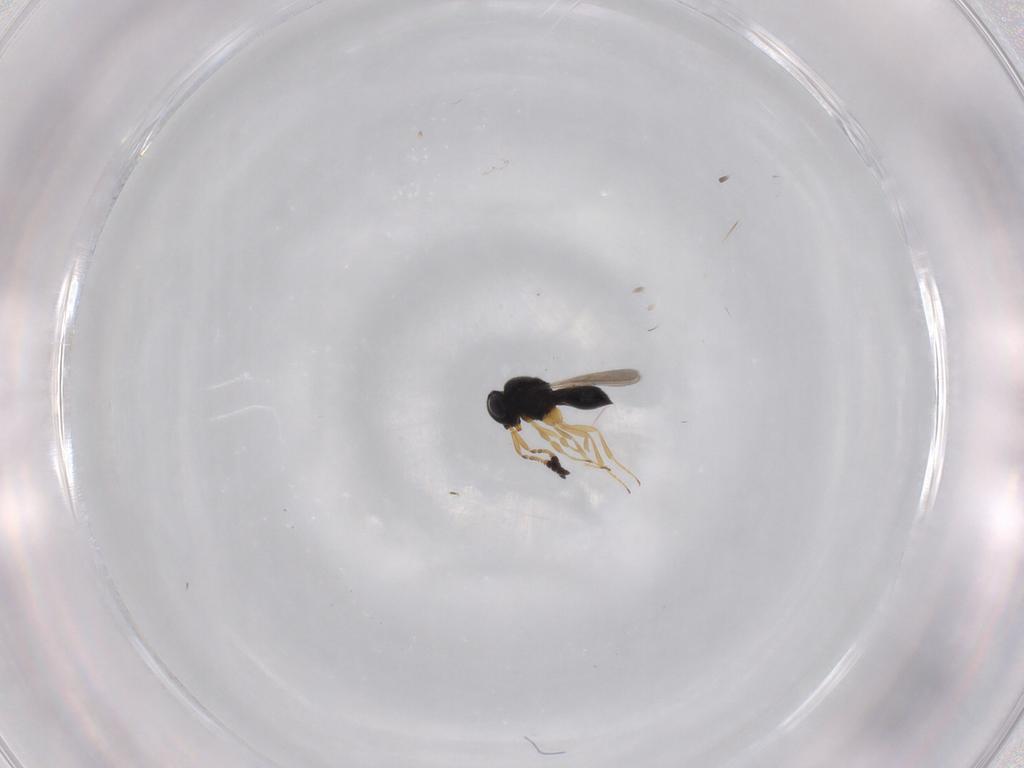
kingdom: Animalia
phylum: Arthropoda
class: Insecta
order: Hymenoptera
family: Scelionidae
